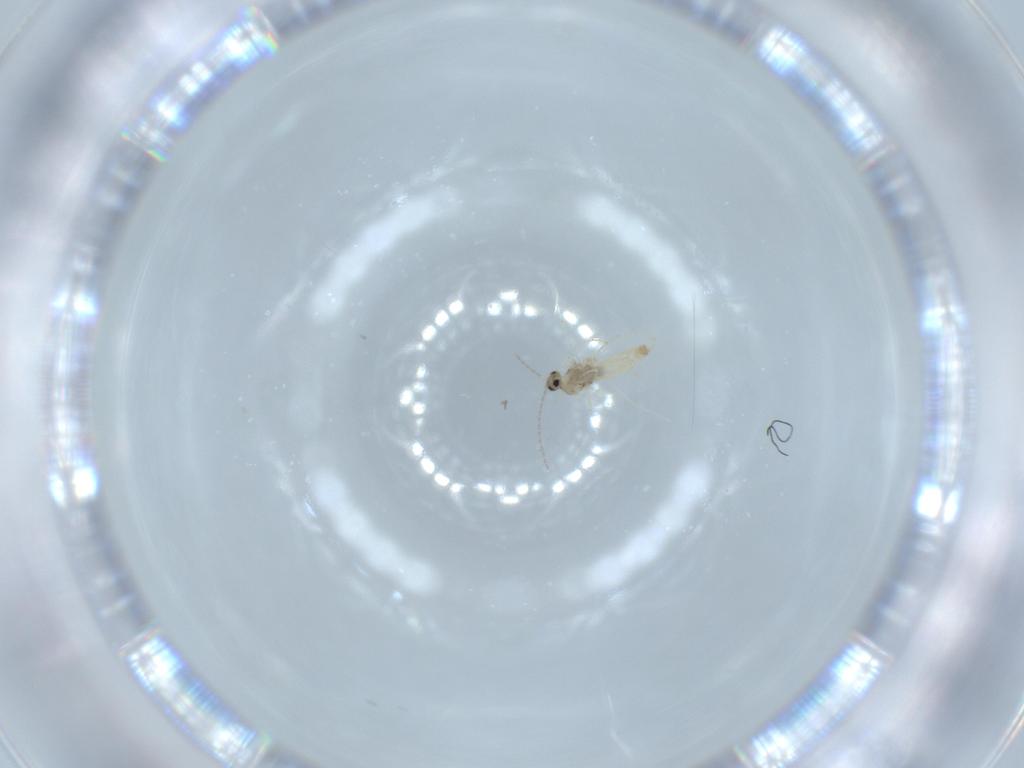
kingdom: Animalia
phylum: Arthropoda
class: Insecta
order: Diptera
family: Cecidomyiidae
